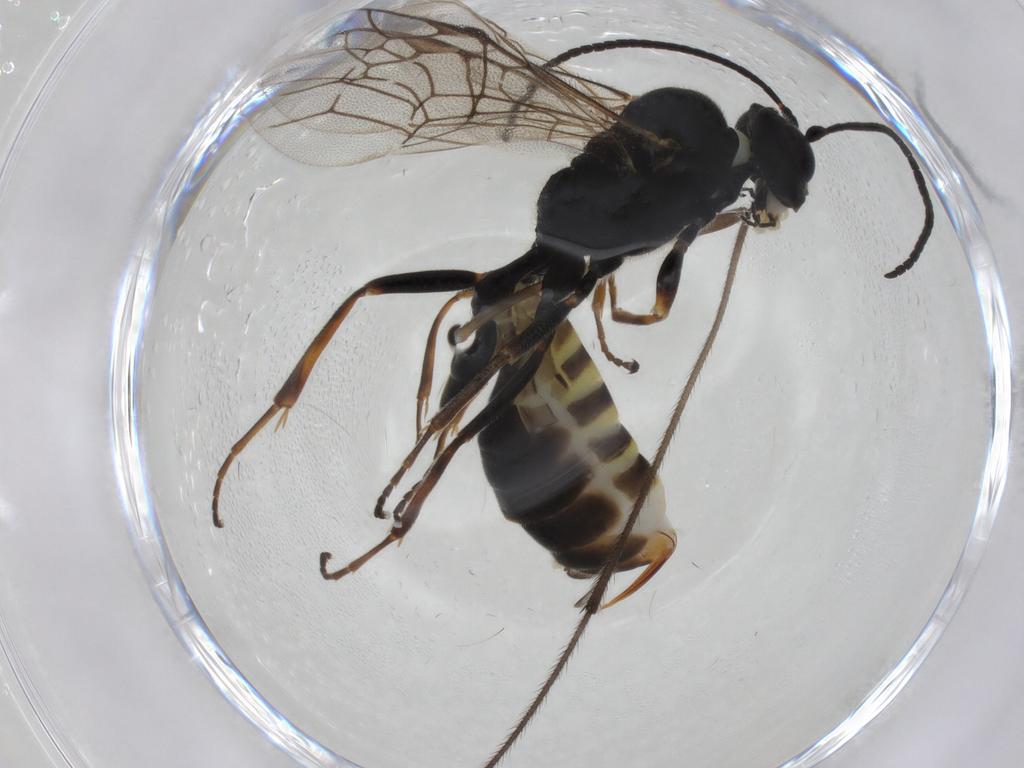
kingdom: Animalia
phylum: Arthropoda
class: Insecta
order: Hymenoptera
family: Ichneumonidae
